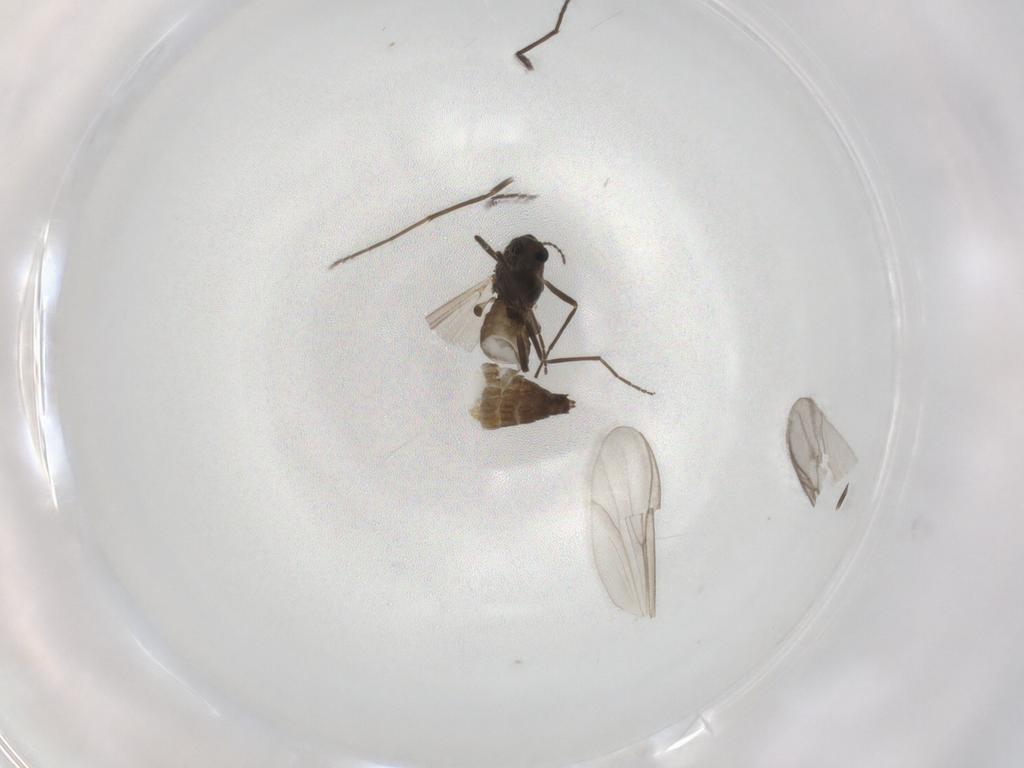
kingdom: Animalia
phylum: Arthropoda
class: Insecta
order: Diptera
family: Chironomidae
